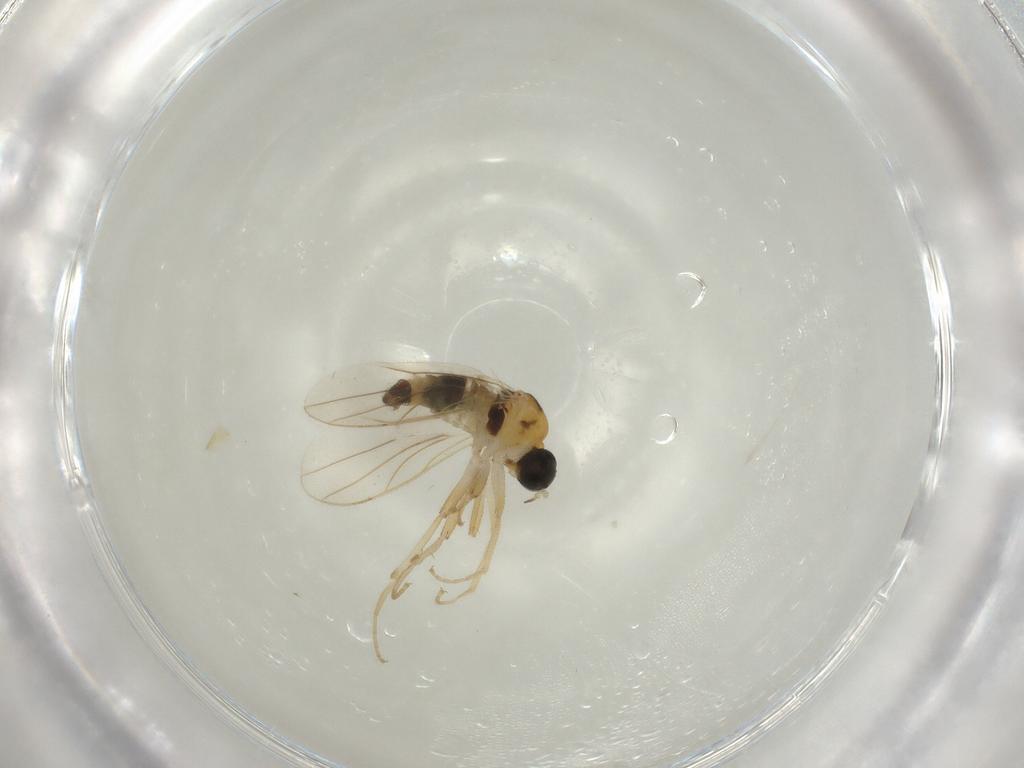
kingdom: Animalia
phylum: Arthropoda
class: Insecta
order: Diptera
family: Hybotidae
